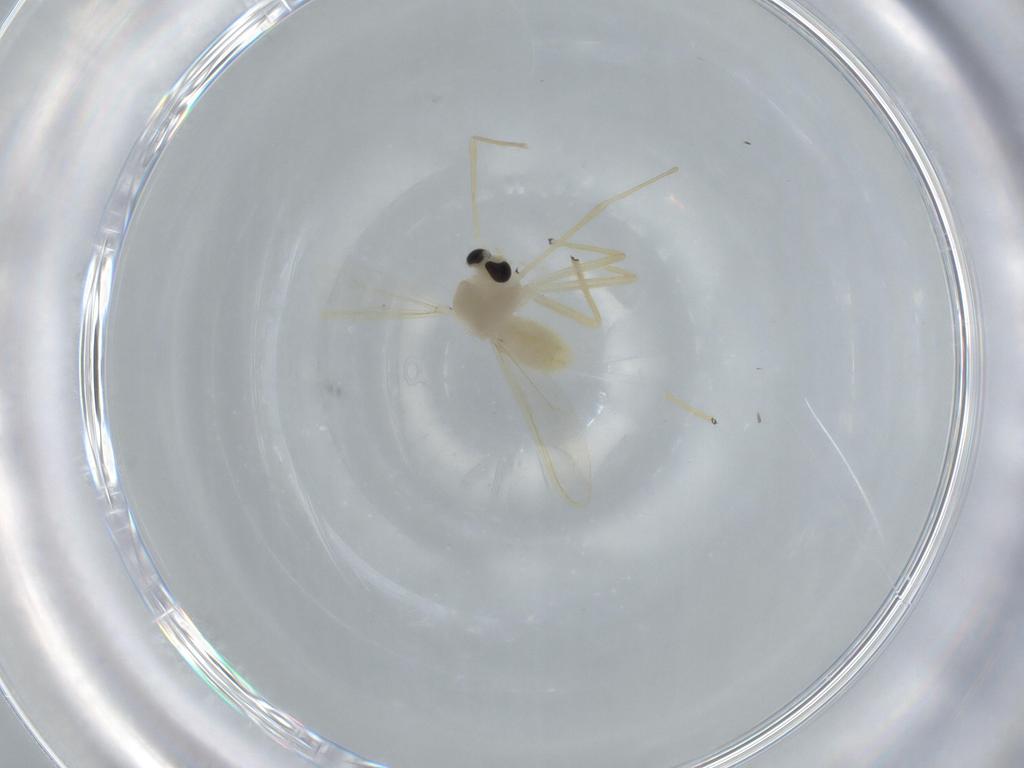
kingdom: Animalia
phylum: Arthropoda
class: Insecta
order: Diptera
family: Chironomidae
